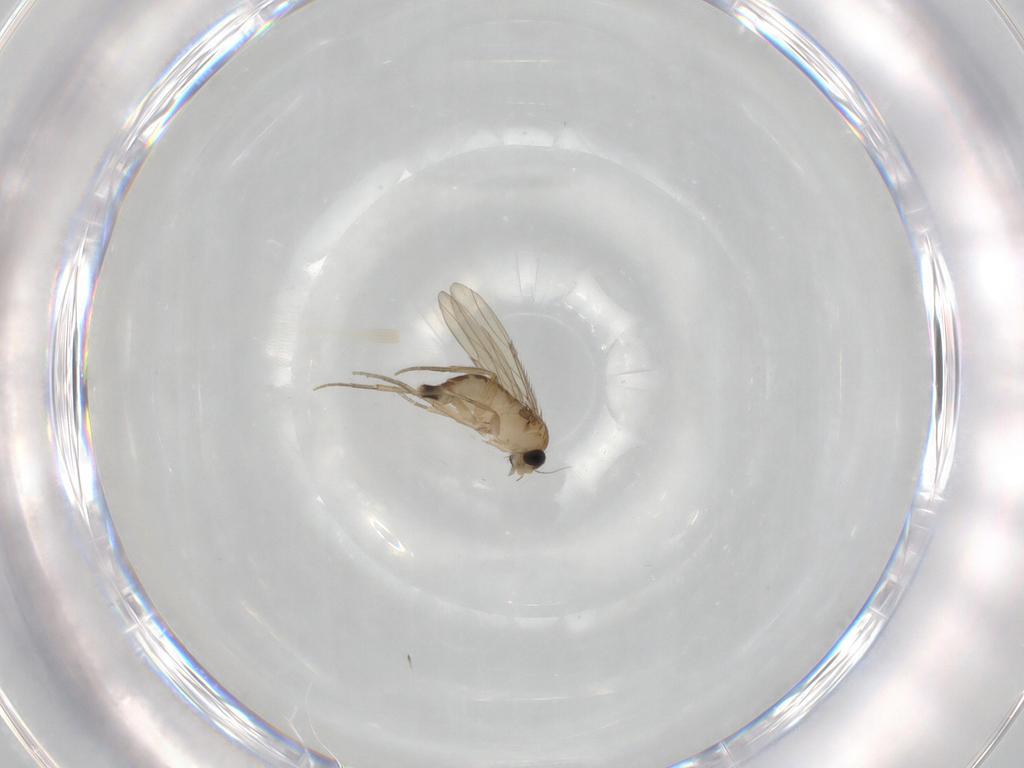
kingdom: Animalia
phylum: Arthropoda
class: Insecta
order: Diptera
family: Phoridae
